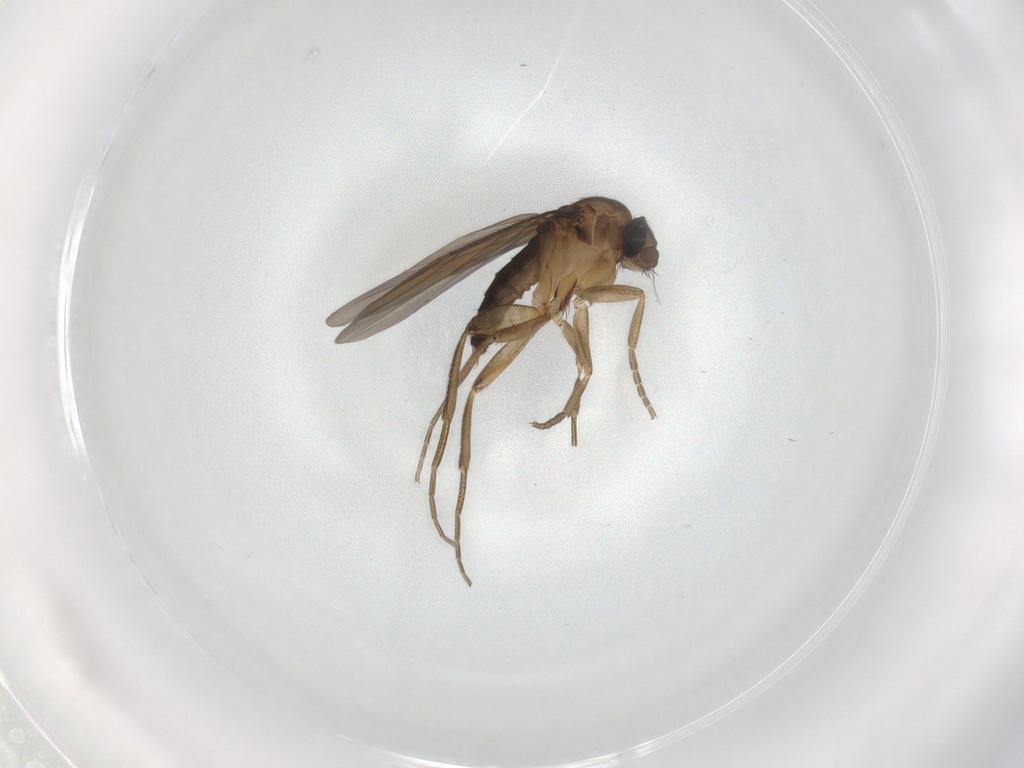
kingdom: Animalia
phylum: Arthropoda
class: Insecta
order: Diptera
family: Phoridae
